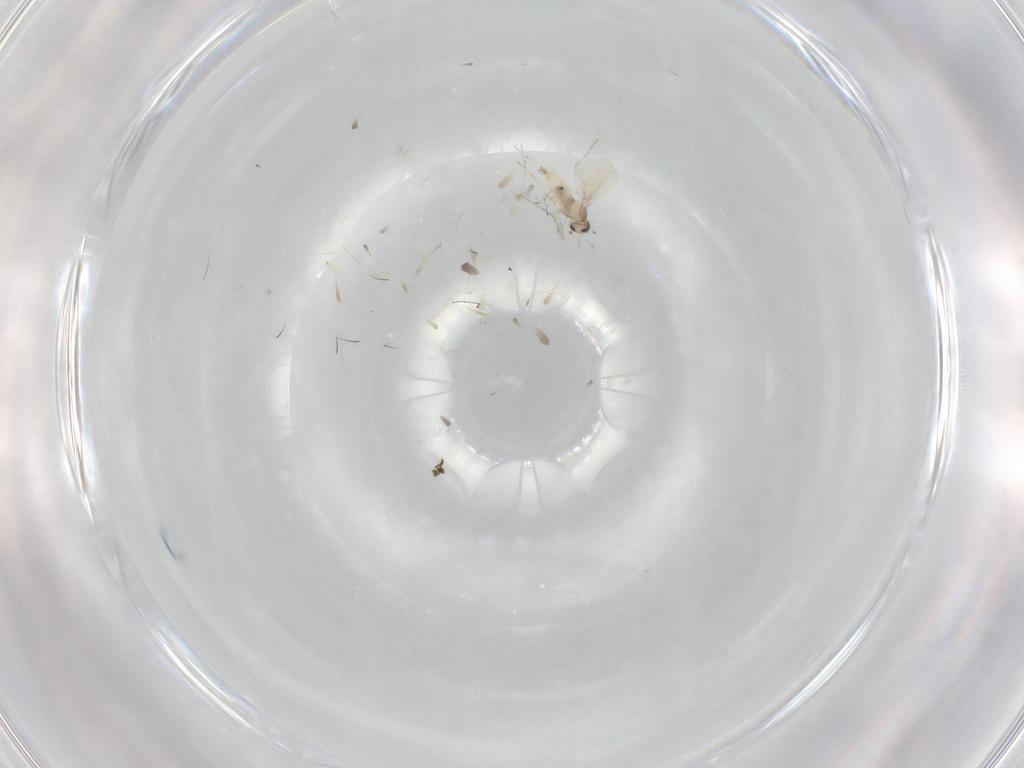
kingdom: Animalia
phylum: Arthropoda
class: Insecta
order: Diptera
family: Cecidomyiidae
